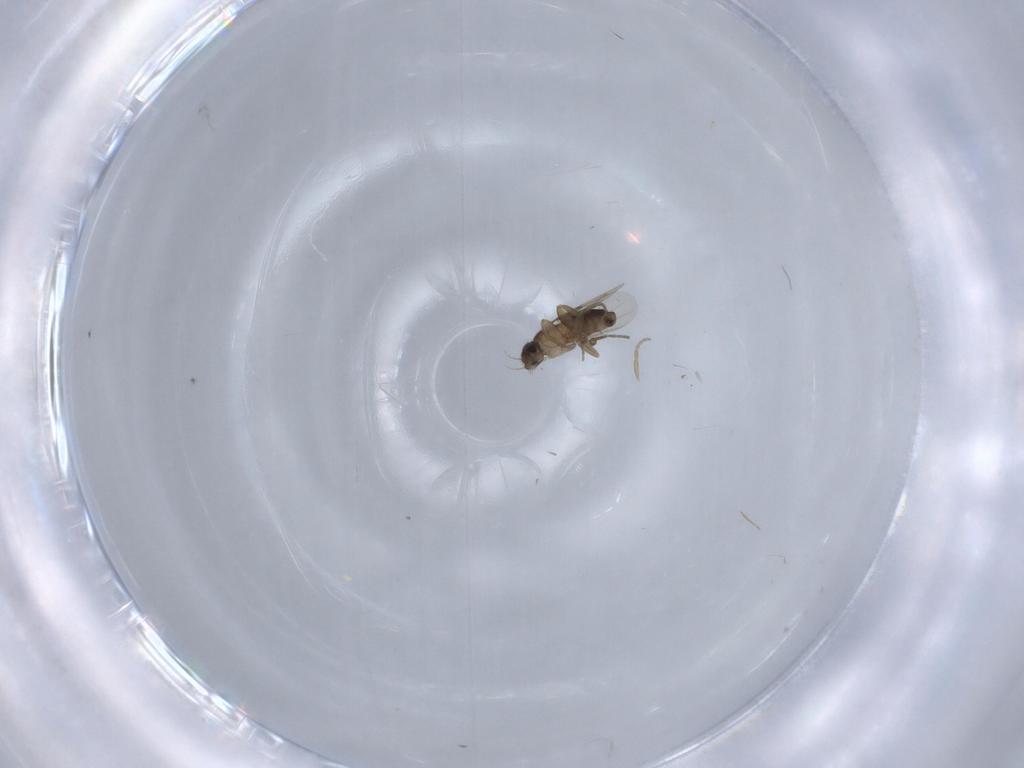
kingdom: Animalia
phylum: Arthropoda
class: Insecta
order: Diptera
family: Phoridae
